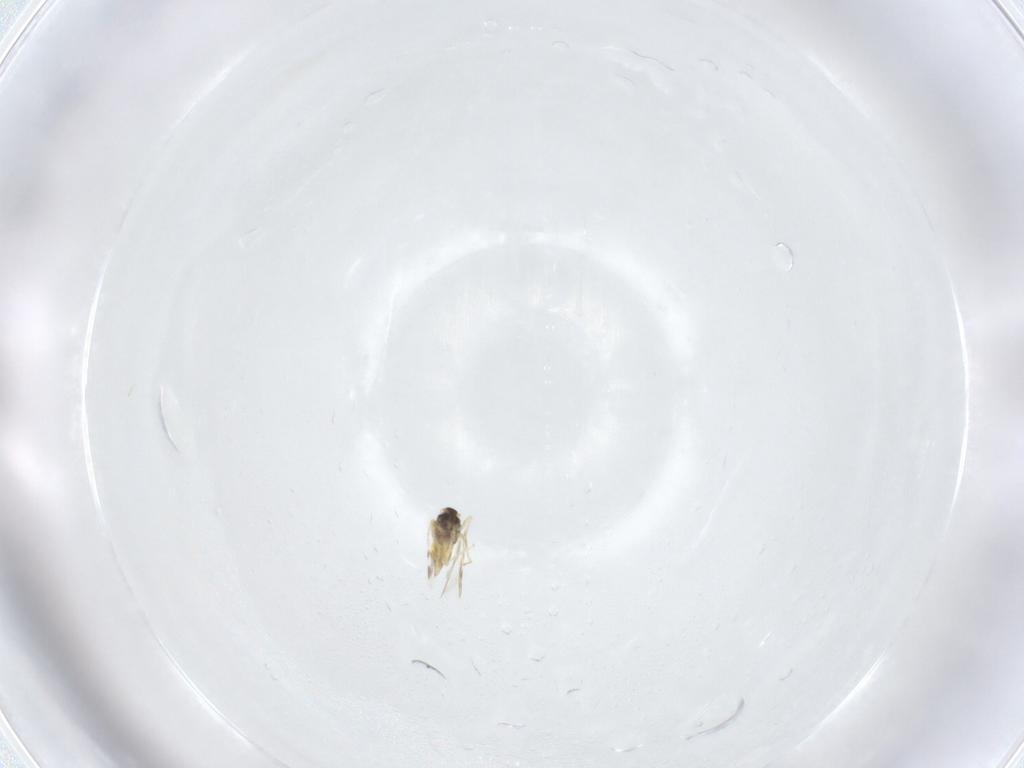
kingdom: Animalia
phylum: Arthropoda
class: Insecta
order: Hemiptera
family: Aleyrodidae
